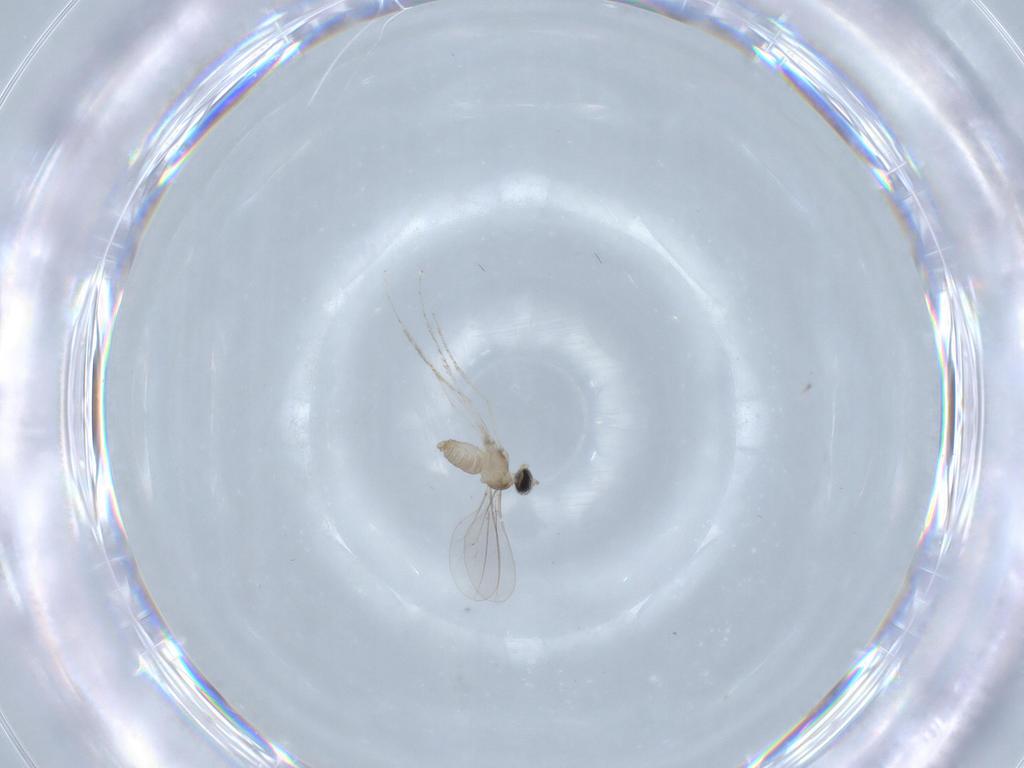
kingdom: Animalia
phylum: Arthropoda
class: Insecta
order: Diptera
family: Cecidomyiidae
